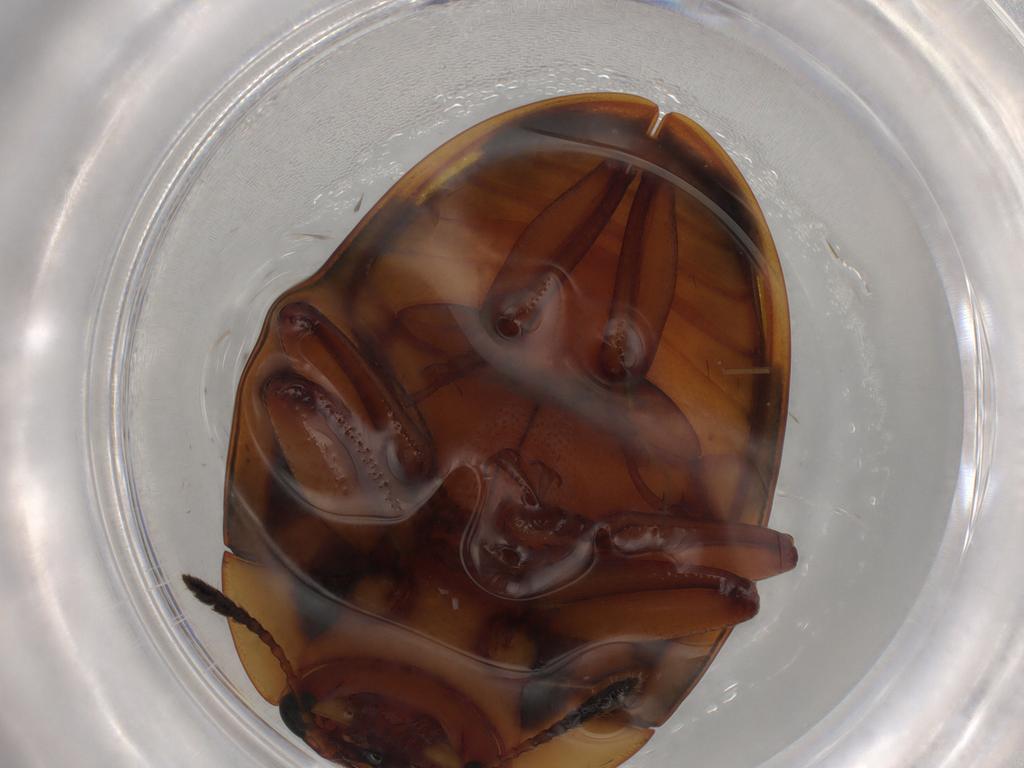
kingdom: Animalia
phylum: Arthropoda
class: Insecta
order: Coleoptera
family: Erotylidae
